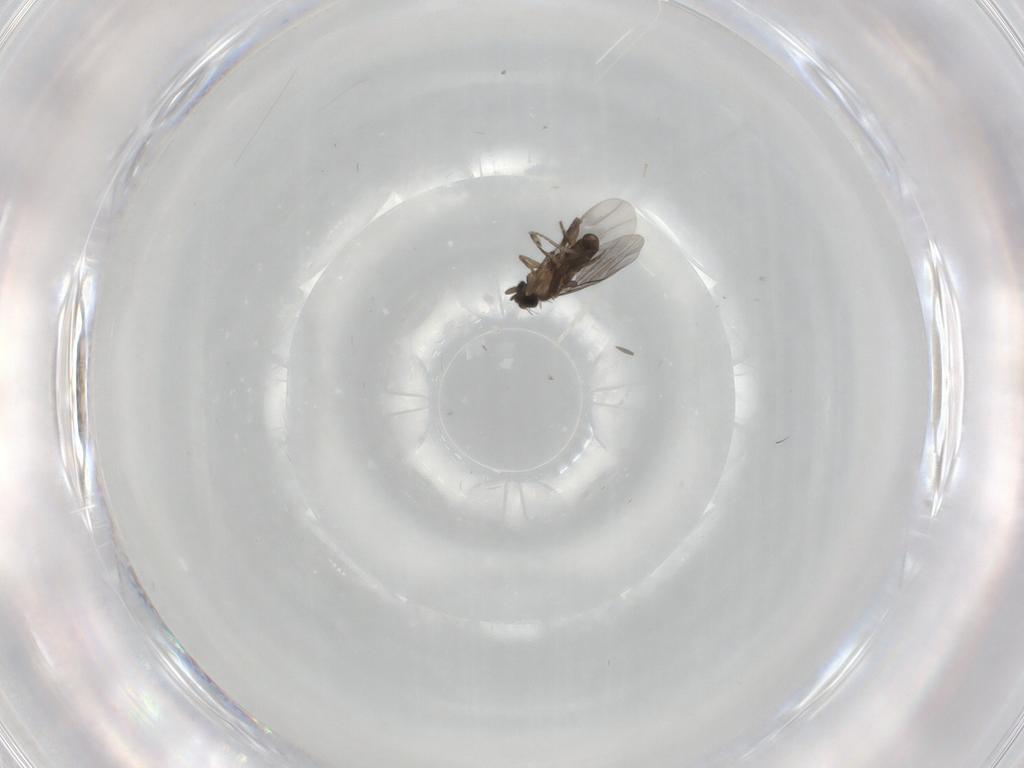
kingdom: Animalia
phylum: Arthropoda
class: Insecta
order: Diptera
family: Phoridae
